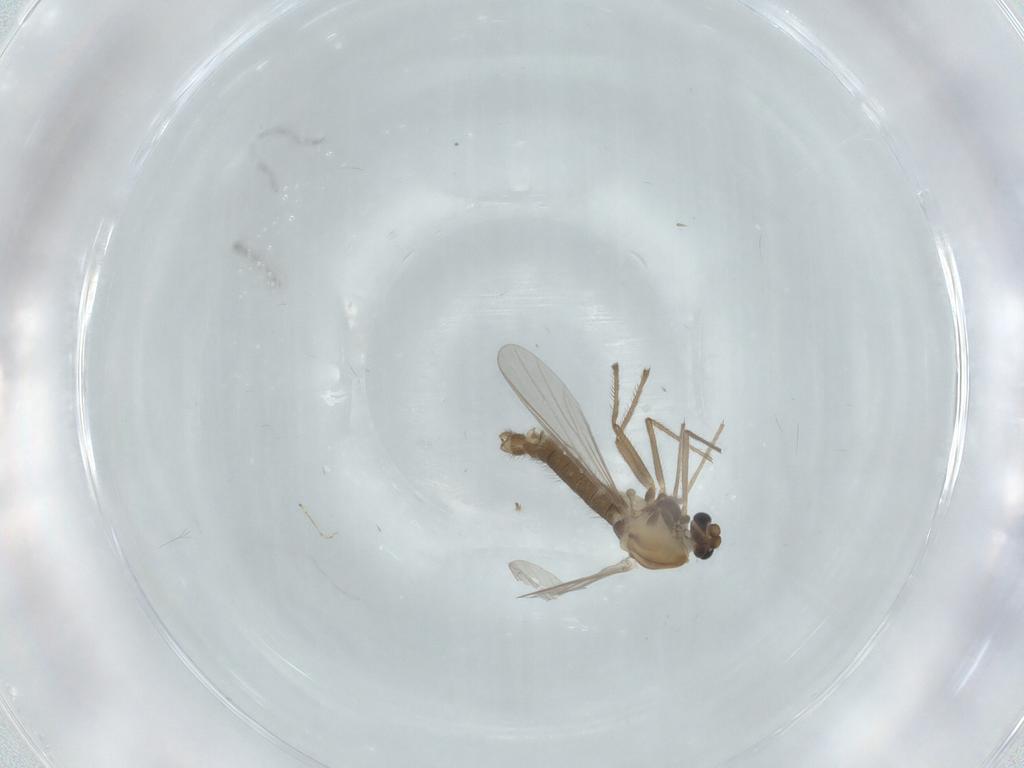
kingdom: Animalia
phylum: Arthropoda
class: Insecta
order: Diptera
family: Chironomidae
